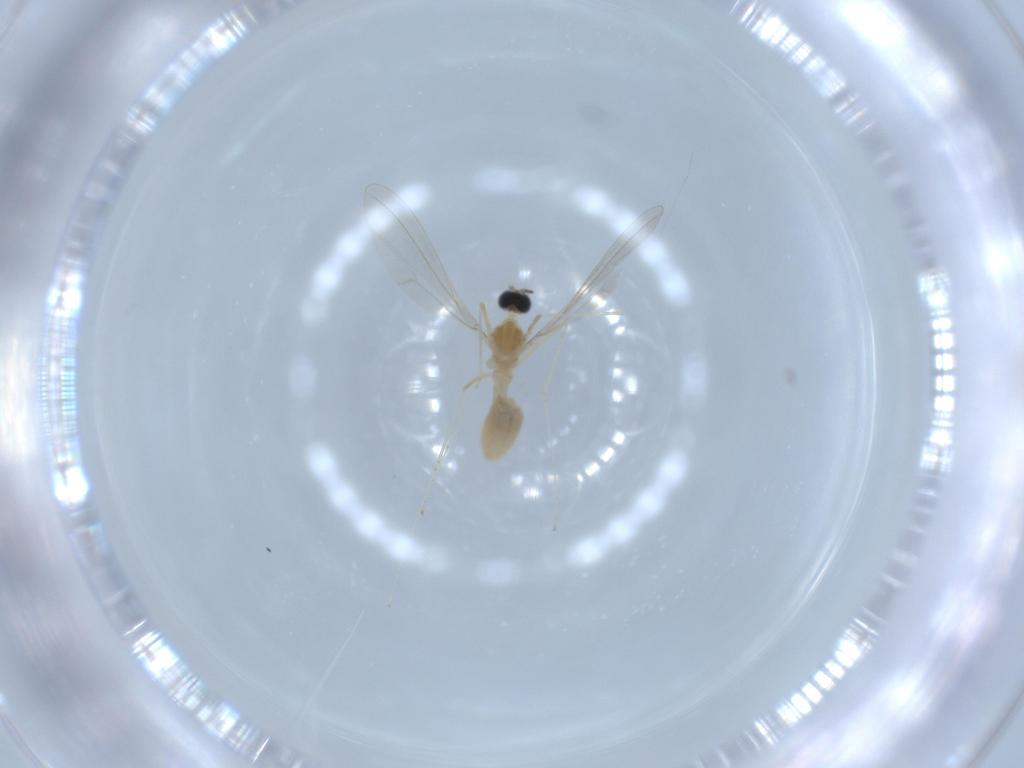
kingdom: Animalia
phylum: Arthropoda
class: Insecta
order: Diptera
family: Cecidomyiidae
